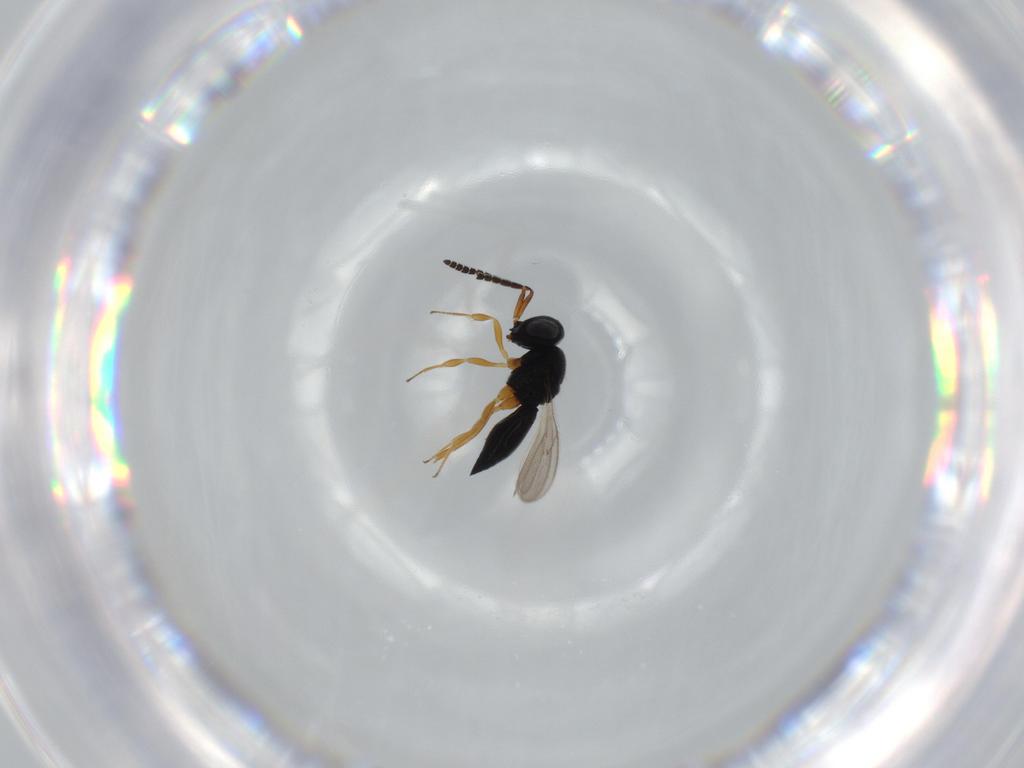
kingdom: Animalia
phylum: Arthropoda
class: Insecta
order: Hymenoptera
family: Scelionidae
